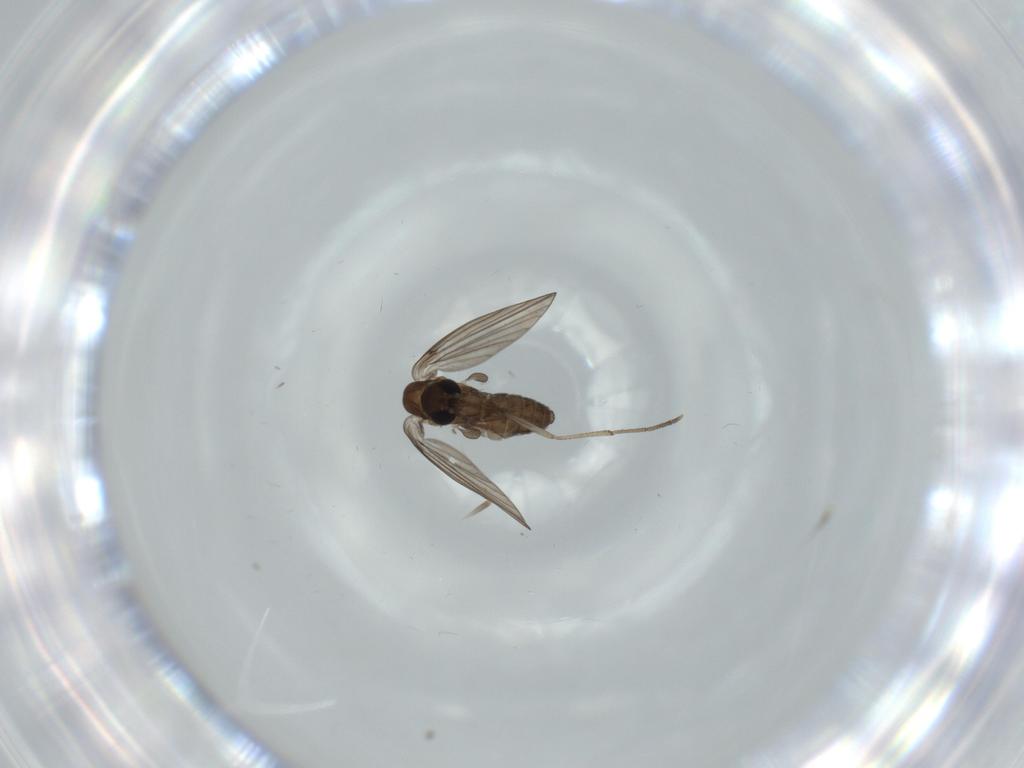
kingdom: Animalia
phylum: Arthropoda
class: Insecta
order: Diptera
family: Psychodidae
